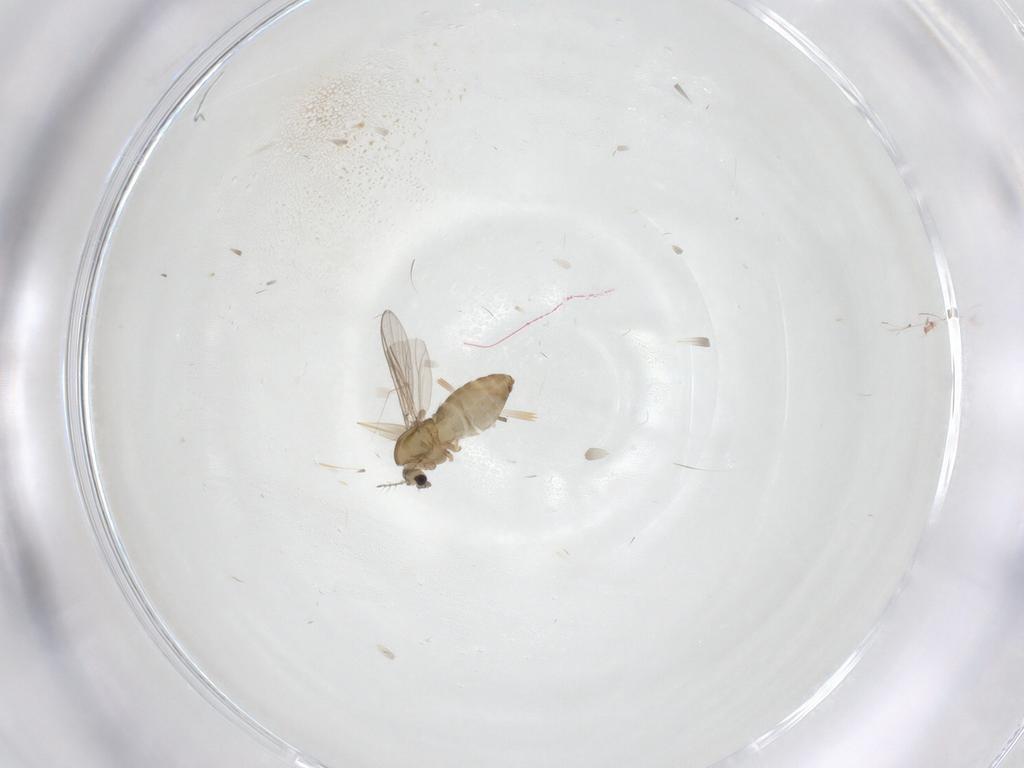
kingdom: Animalia
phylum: Arthropoda
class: Insecta
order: Diptera
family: Chironomidae
